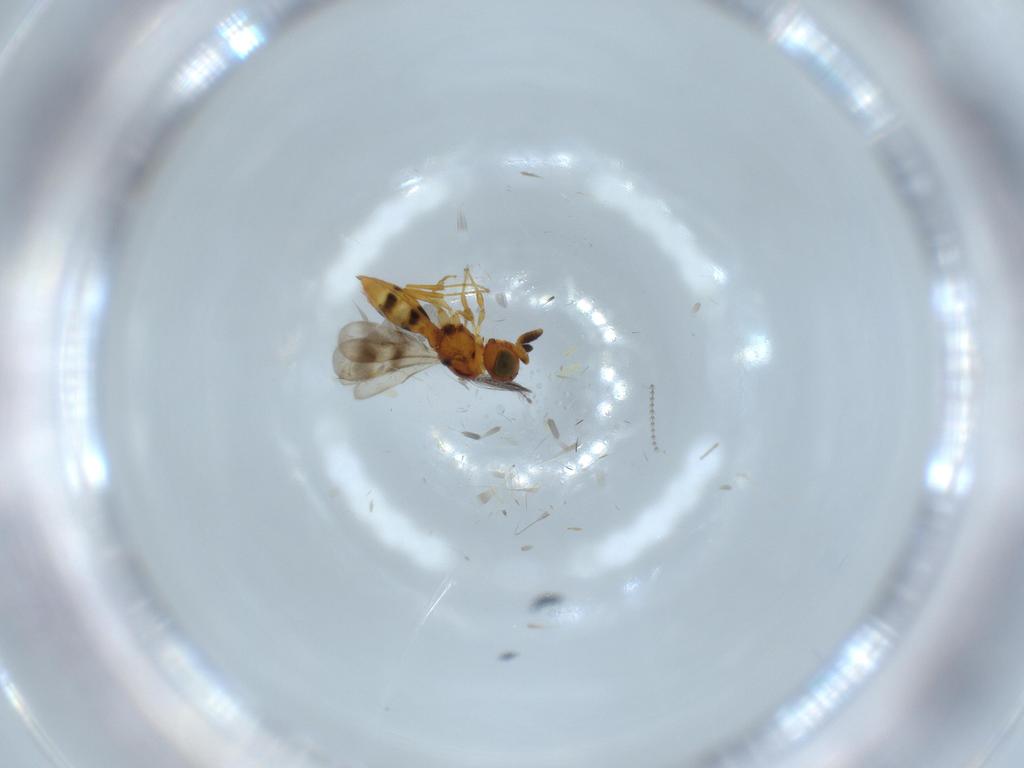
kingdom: Animalia
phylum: Arthropoda
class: Insecta
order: Hymenoptera
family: Scelionidae
